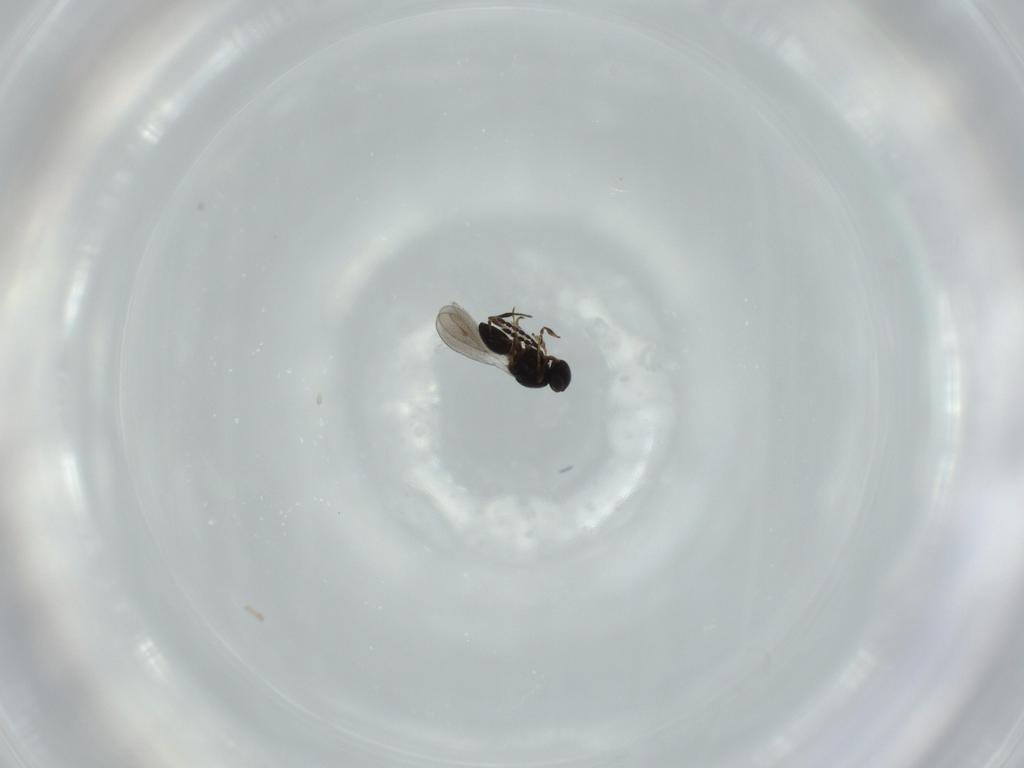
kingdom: Animalia
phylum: Arthropoda
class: Insecta
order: Hymenoptera
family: Platygastridae
